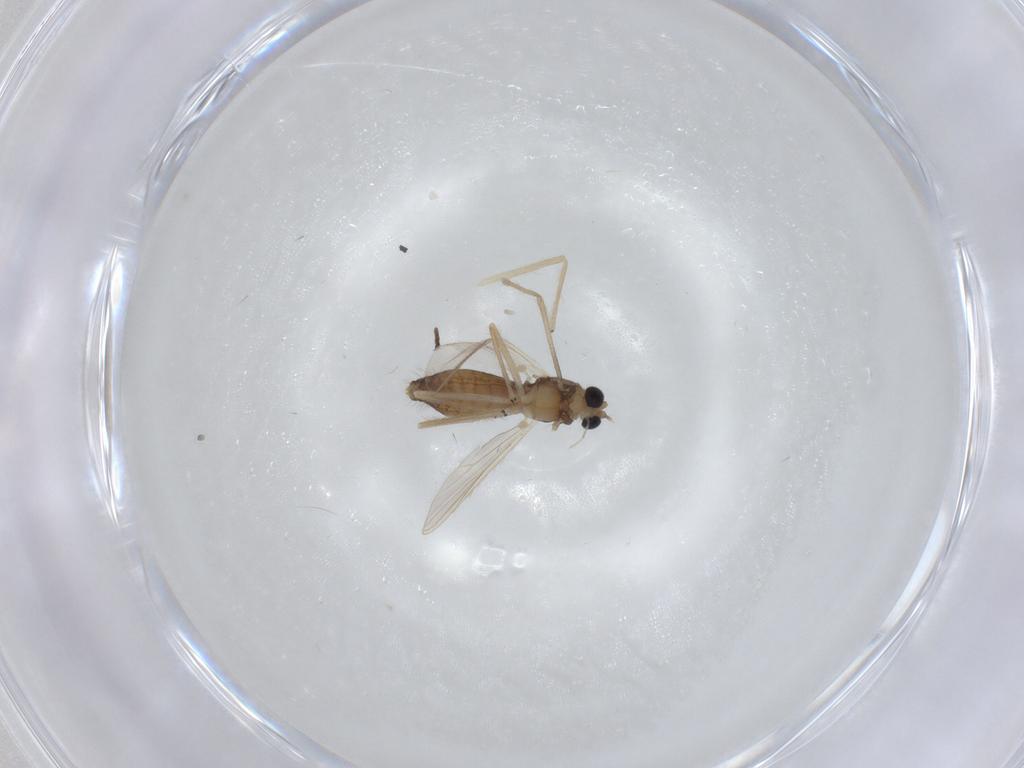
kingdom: Animalia
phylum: Arthropoda
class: Insecta
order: Diptera
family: Chironomidae
